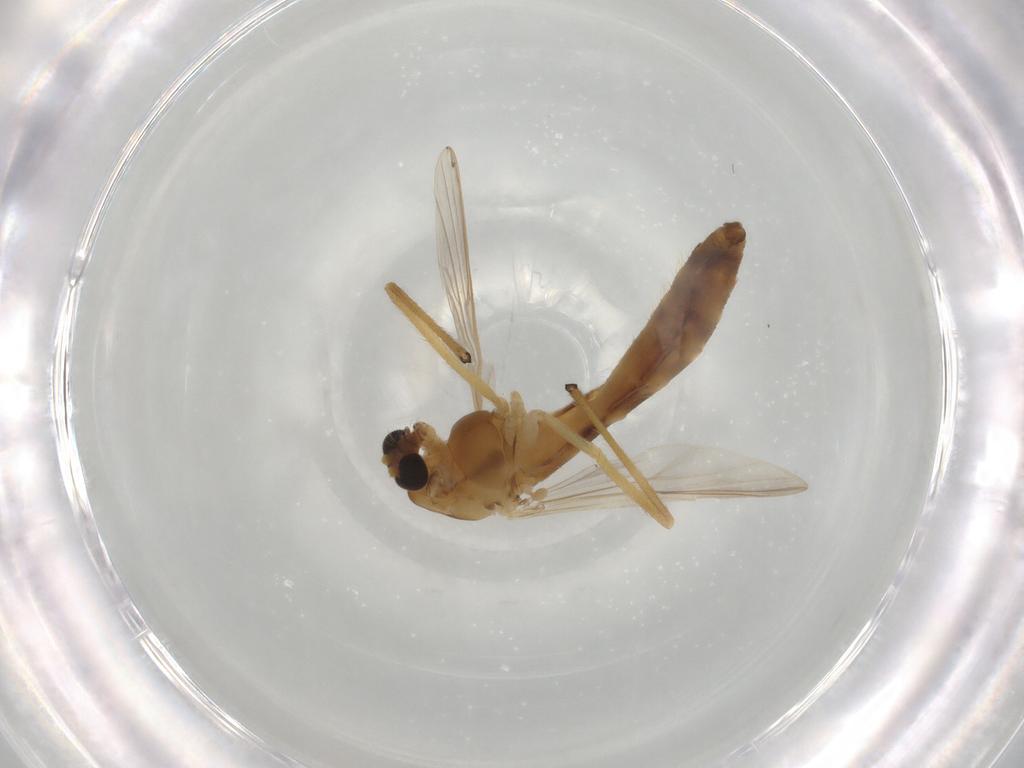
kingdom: Animalia
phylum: Arthropoda
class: Insecta
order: Diptera
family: Chironomidae
